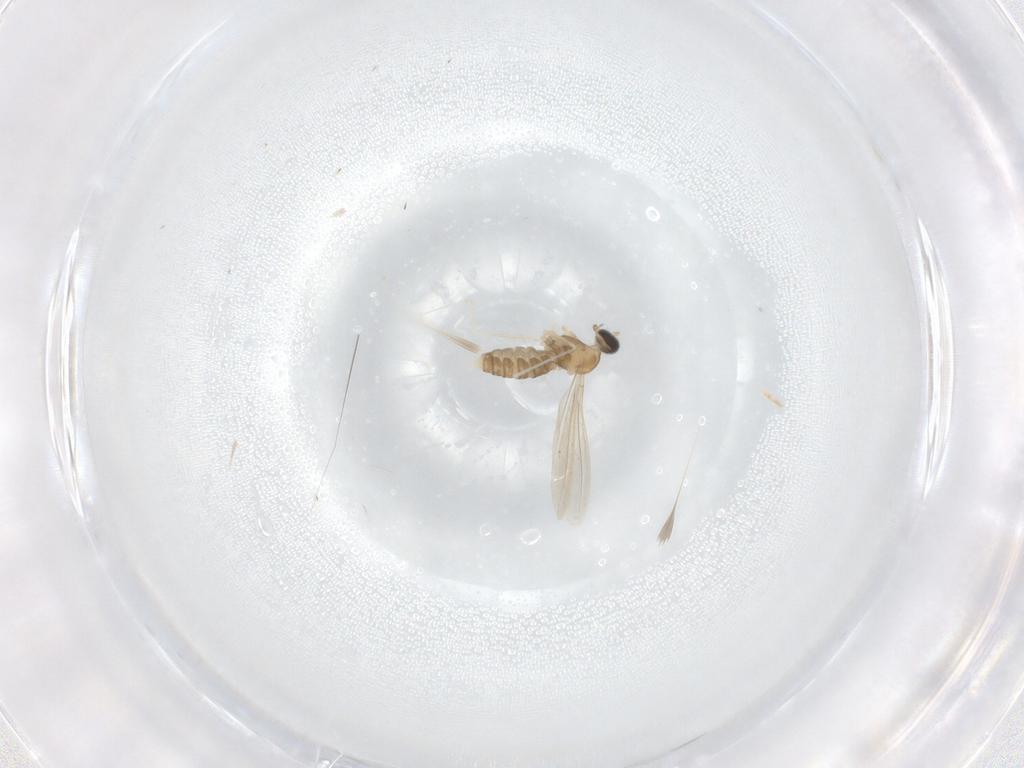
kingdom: Animalia
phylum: Arthropoda
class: Insecta
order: Diptera
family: Cecidomyiidae
